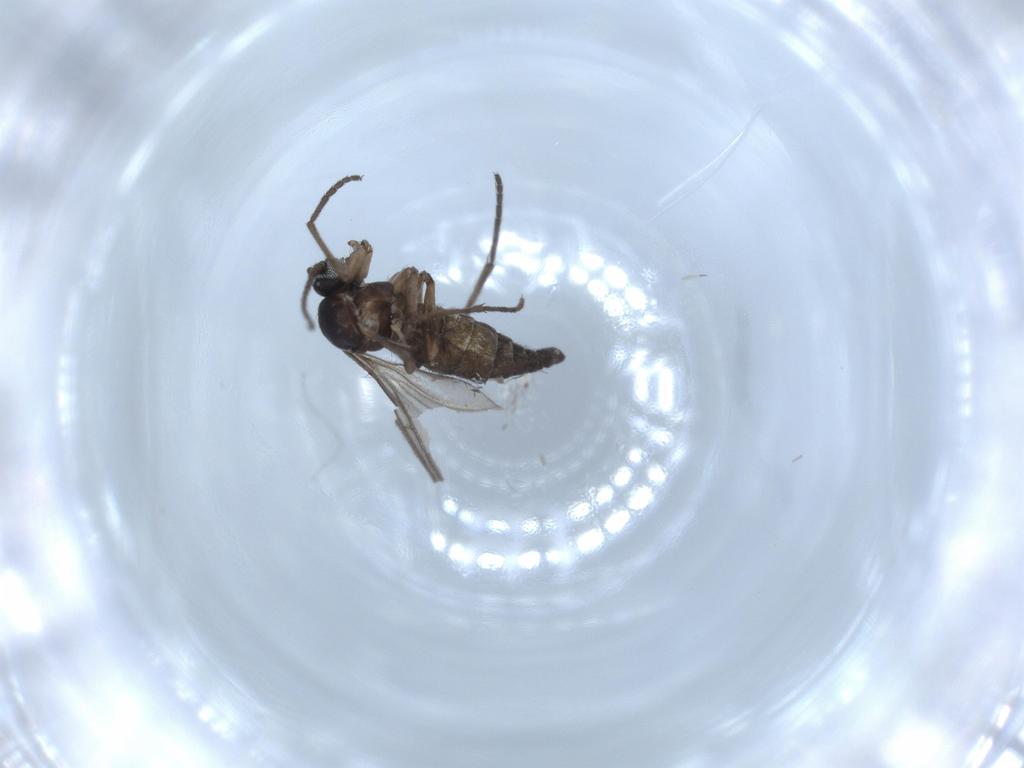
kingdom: Animalia
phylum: Arthropoda
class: Insecta
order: Diptera
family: Sciaridae
